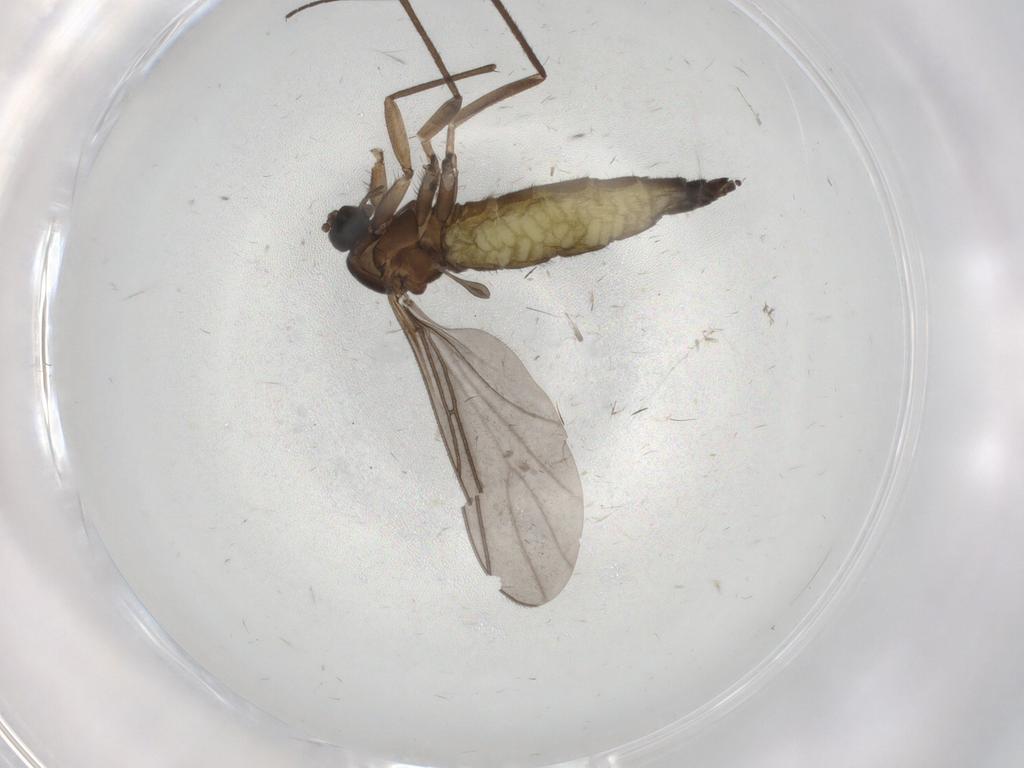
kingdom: Animalia
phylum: Arthropoda
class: Insecta
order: Diptera
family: Sciaridae
